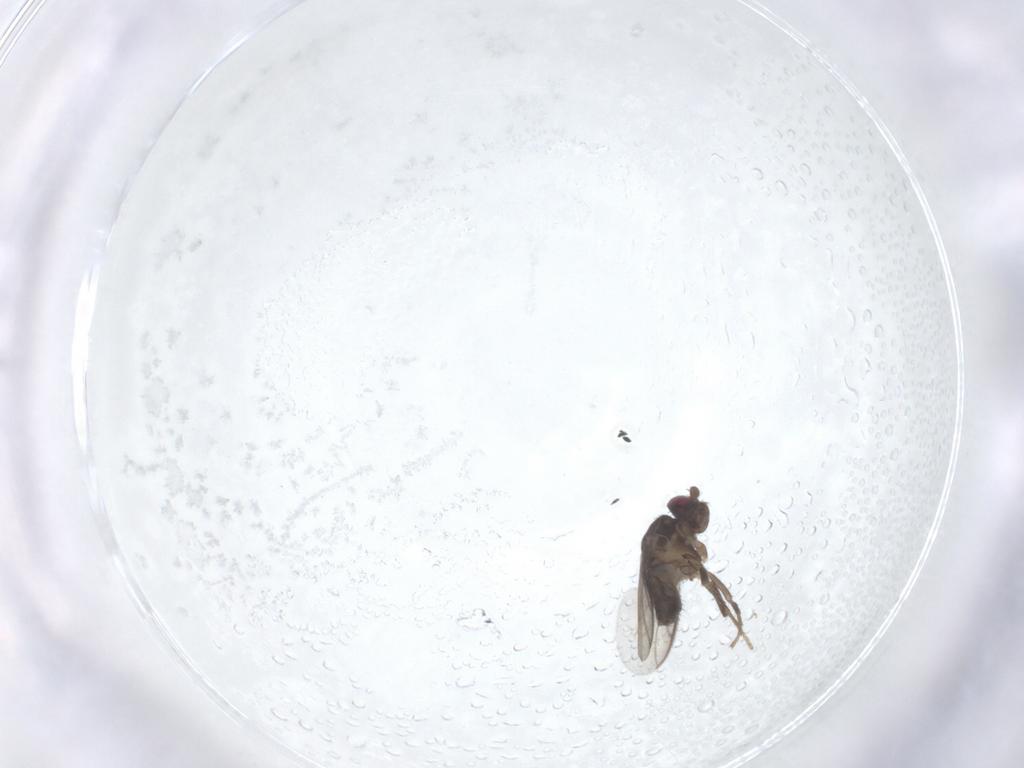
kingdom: Animalia
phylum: Arthropoda
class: Insecta
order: Diptera
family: Sphaeroceridae
